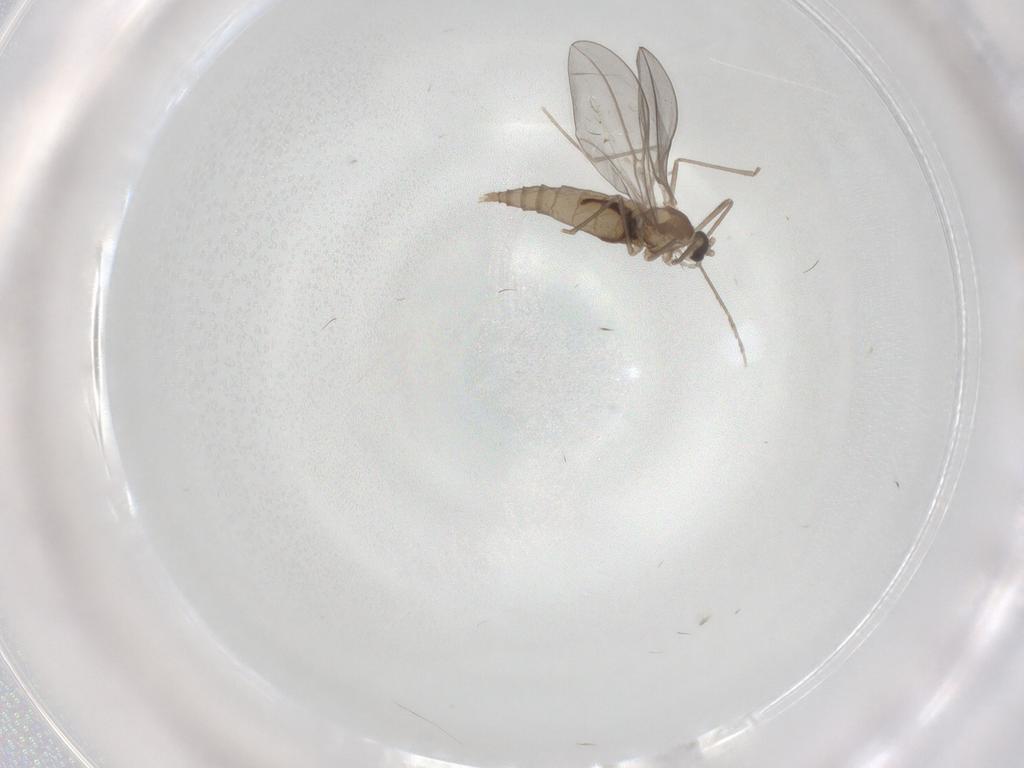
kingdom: Animalia
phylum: Arthropoda
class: Insecta
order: Diptera
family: Cecidomyiidae
